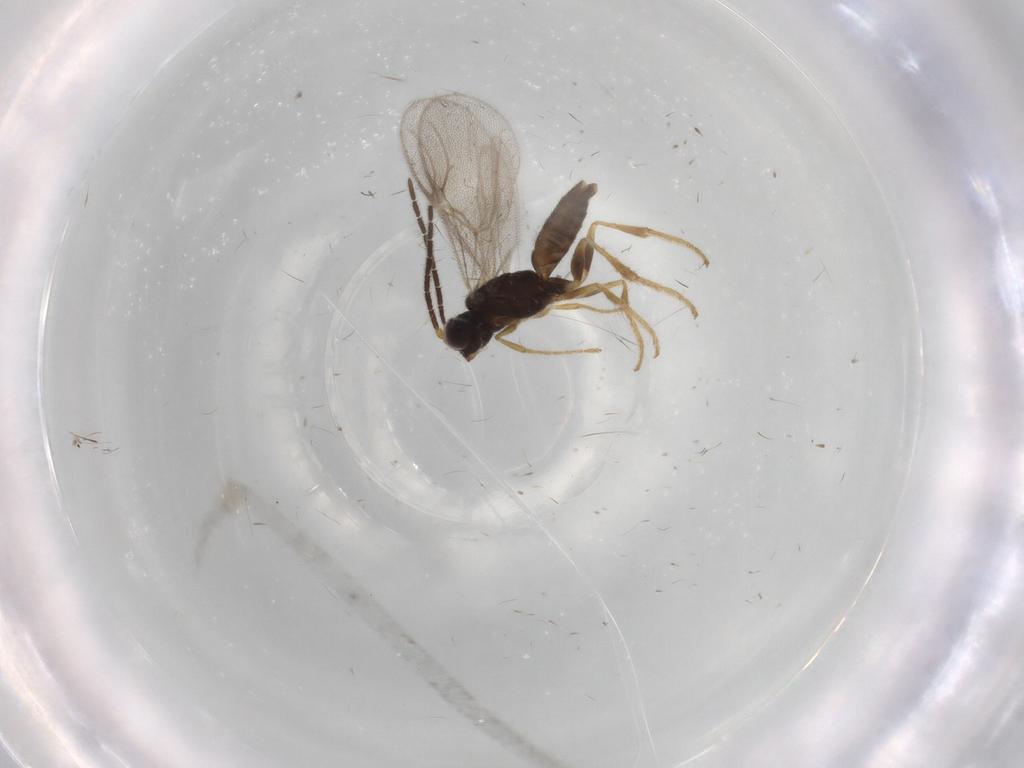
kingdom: Animalia
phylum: Arthropoda
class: Insecta
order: Hymenoptera
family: Dryinidae
